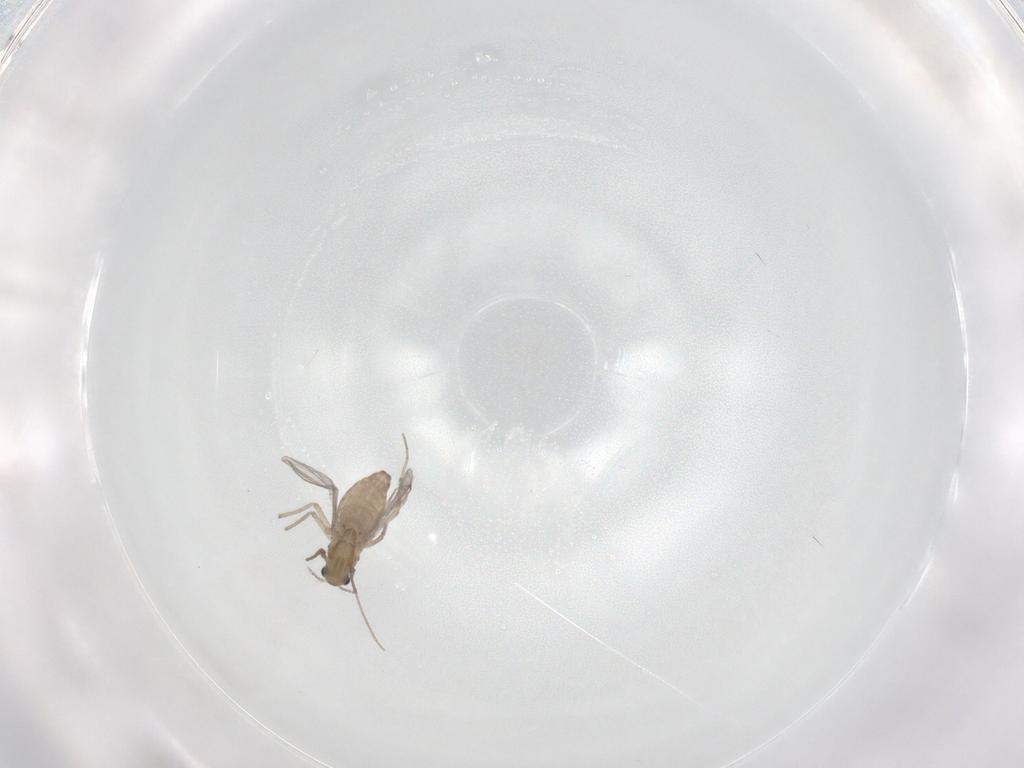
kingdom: Animalia
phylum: Arthropoda
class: Insecta
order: Diptera
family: Chironomidae
